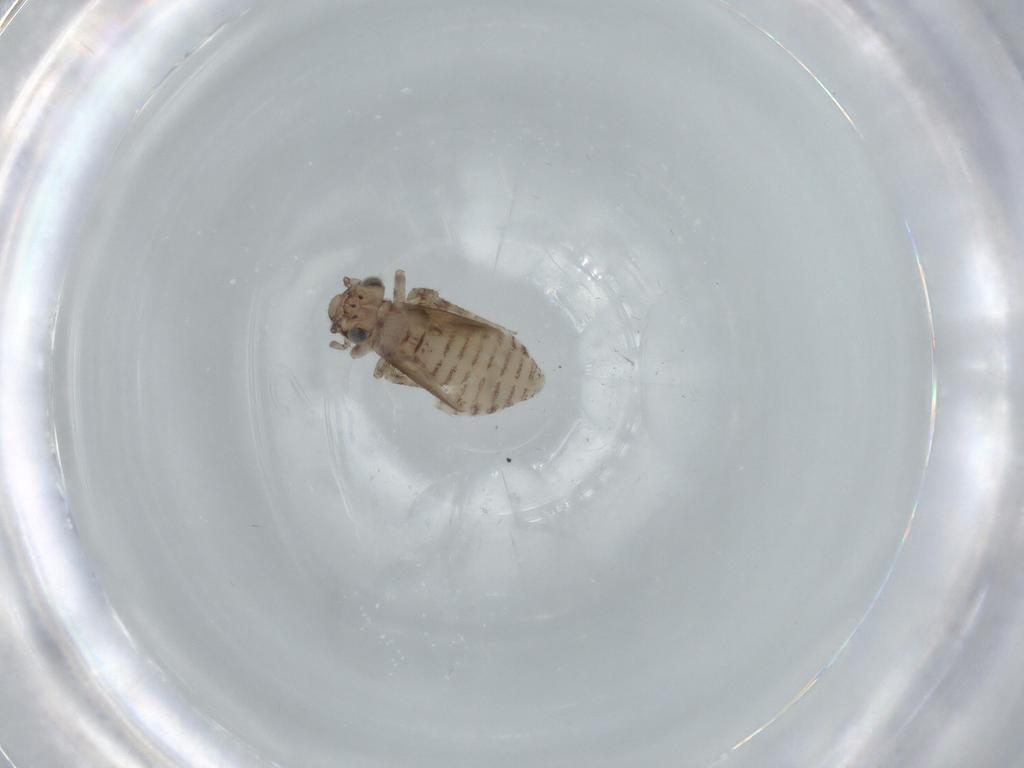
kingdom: Animalia
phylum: Arthropoda
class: Insecta
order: Psocodea
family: Lepidopsocidae
